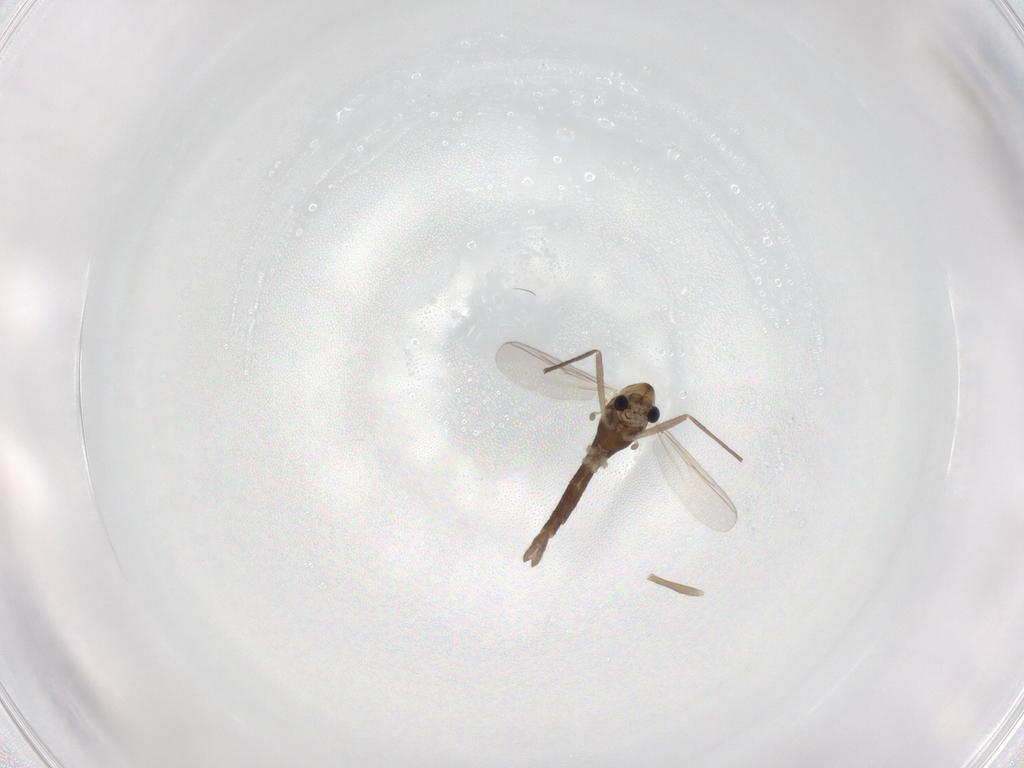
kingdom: Animalia
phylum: Arthropoda
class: Insecta
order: Diptera
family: Chironomidae
